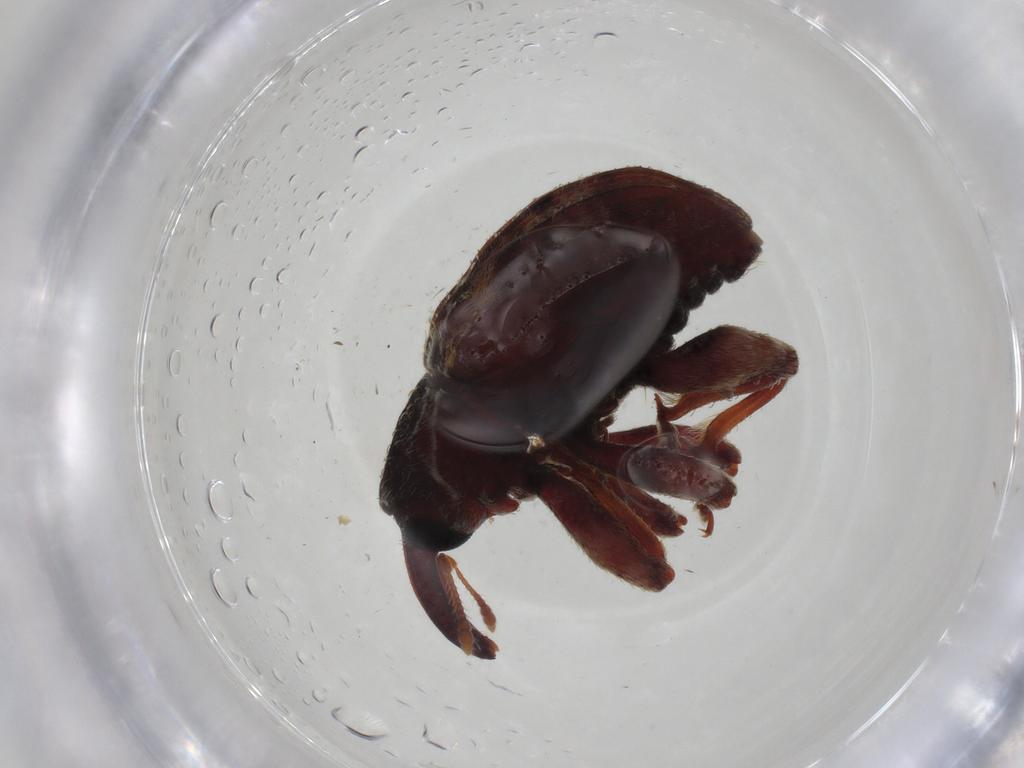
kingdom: Animalia
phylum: Arthropoda
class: Insecta
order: Coleoptera
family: Curculionidae
